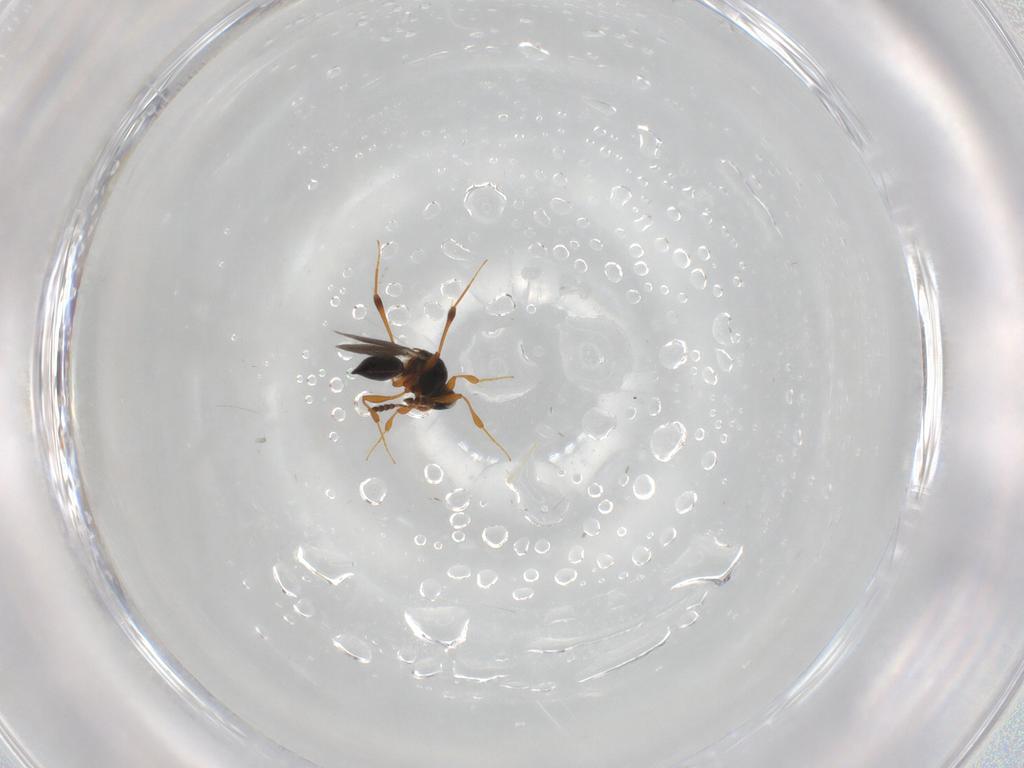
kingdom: Animalia
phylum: Arthropoda
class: Insecta
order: Hymenoptera
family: Platygastridae
